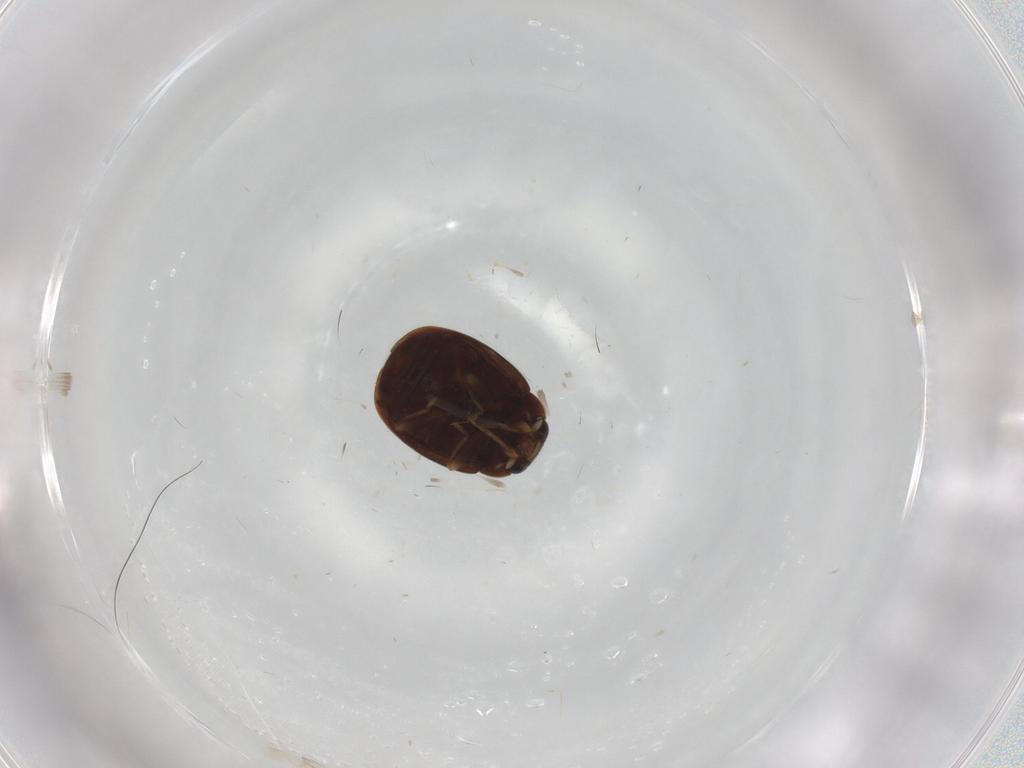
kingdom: Animalia
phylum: Arthropoda
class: Insecta
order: Coleoptera
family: Coccinellidae
